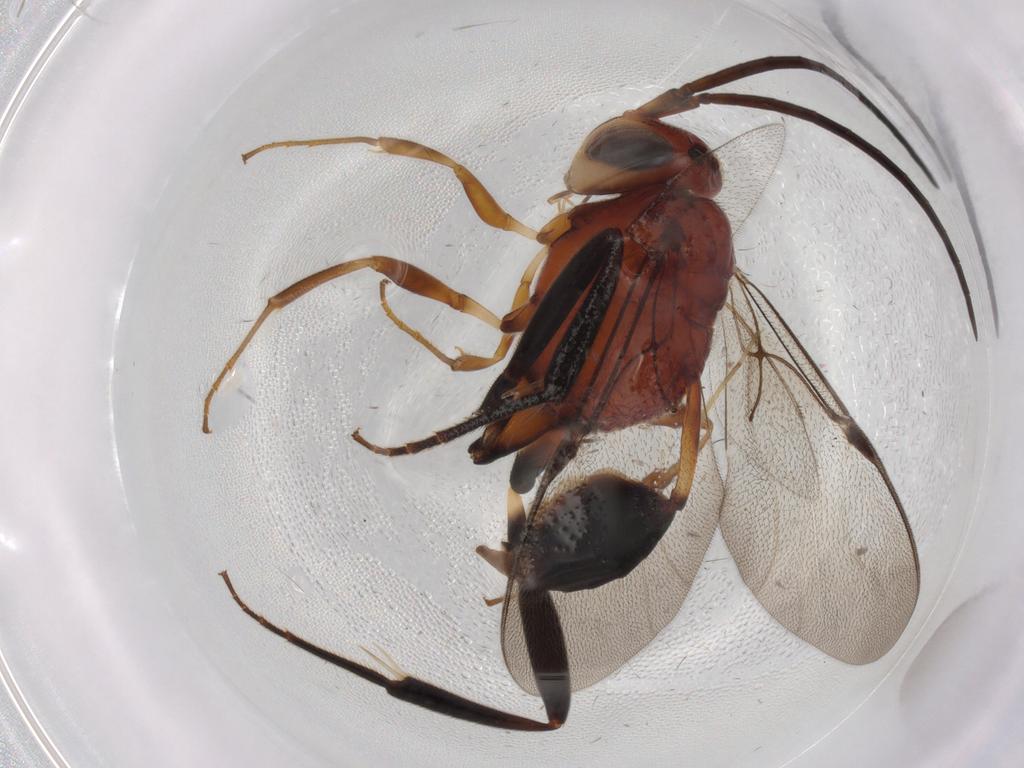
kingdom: Animalia
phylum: Arthropoda
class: Insecta
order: Hymenoptera
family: Evaniidae
